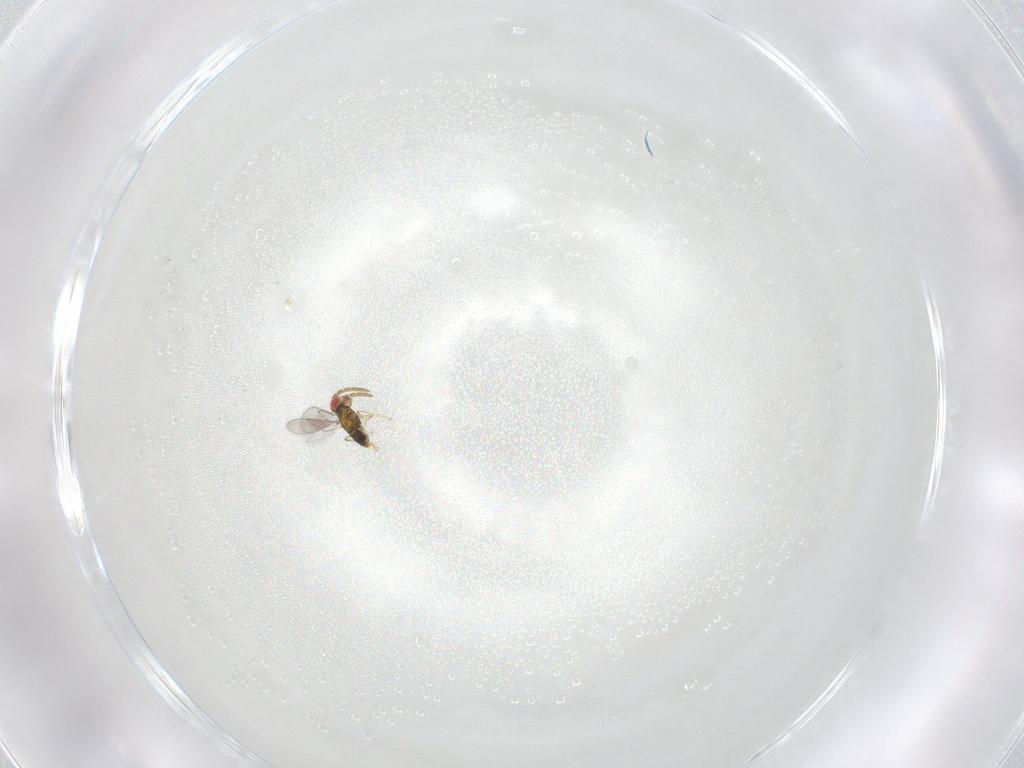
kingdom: Animalia
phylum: Arthropoda
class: Insecta
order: Hymenoptera
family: Aphelinidae
